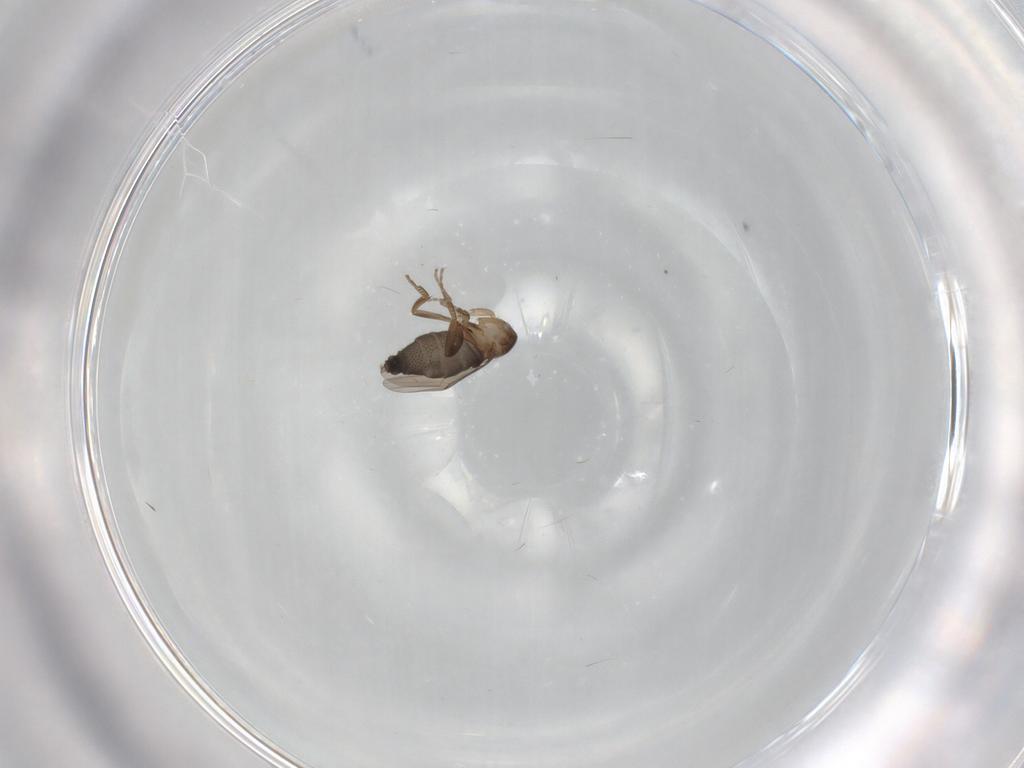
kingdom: Animalia
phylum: Arthropoda
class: Insecta
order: Diptera
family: Phoridae
